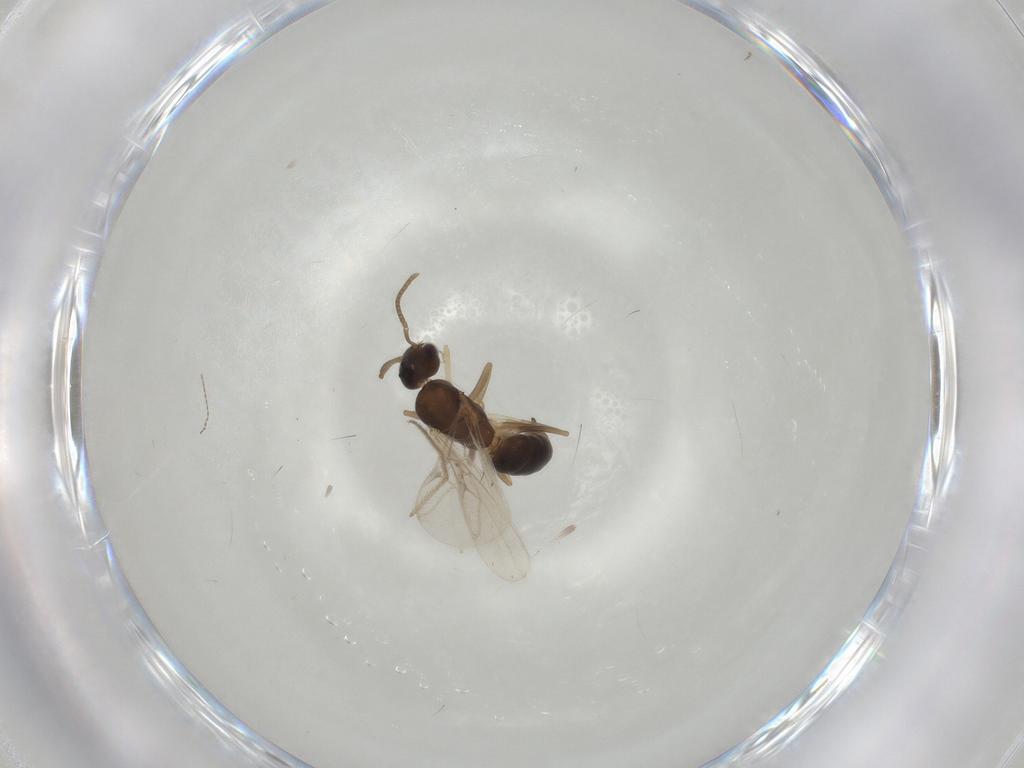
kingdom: Animalia
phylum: Arthropoda
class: Insecta
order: Hymenoptera
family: Formicidae
